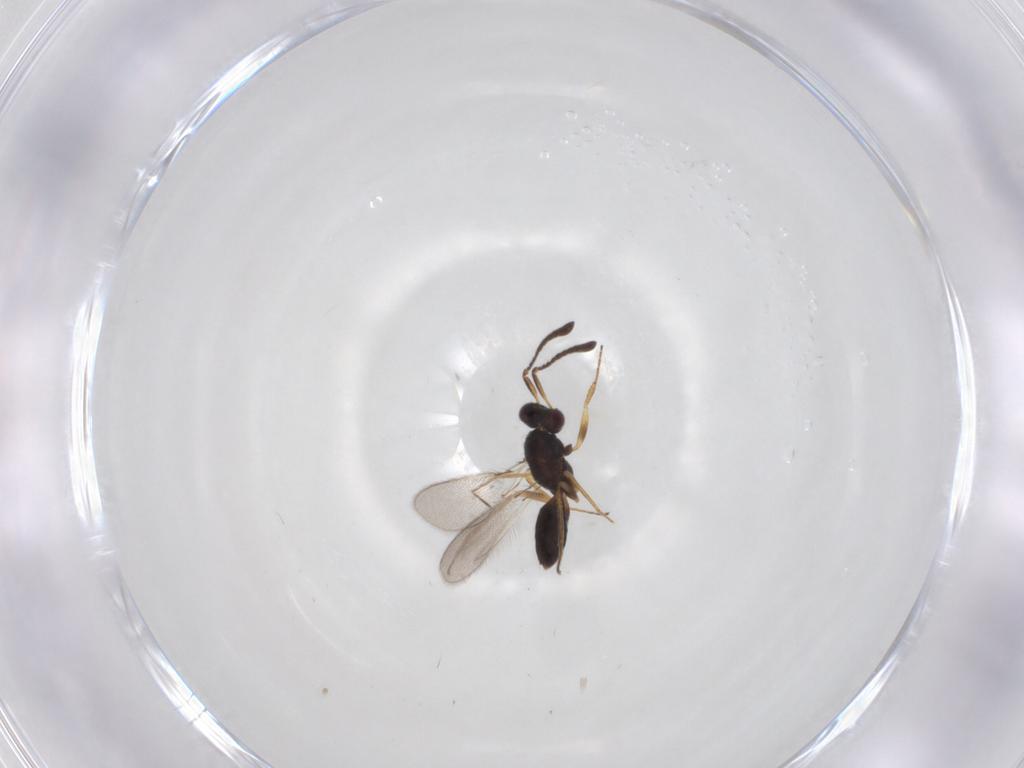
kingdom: Animalia
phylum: Arthropoda
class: Insecta
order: Hymenoptera
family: Mymaridae
